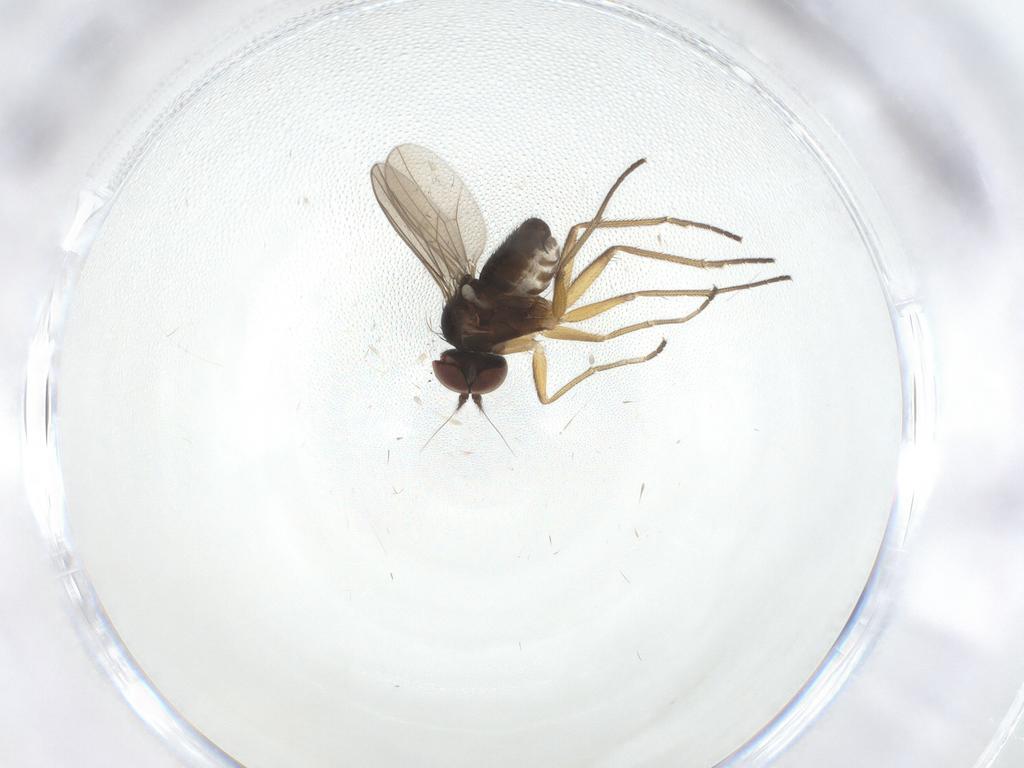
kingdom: Animalia
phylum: Arthropoda
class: Insecta
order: Diptera
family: Dolichopodidae
